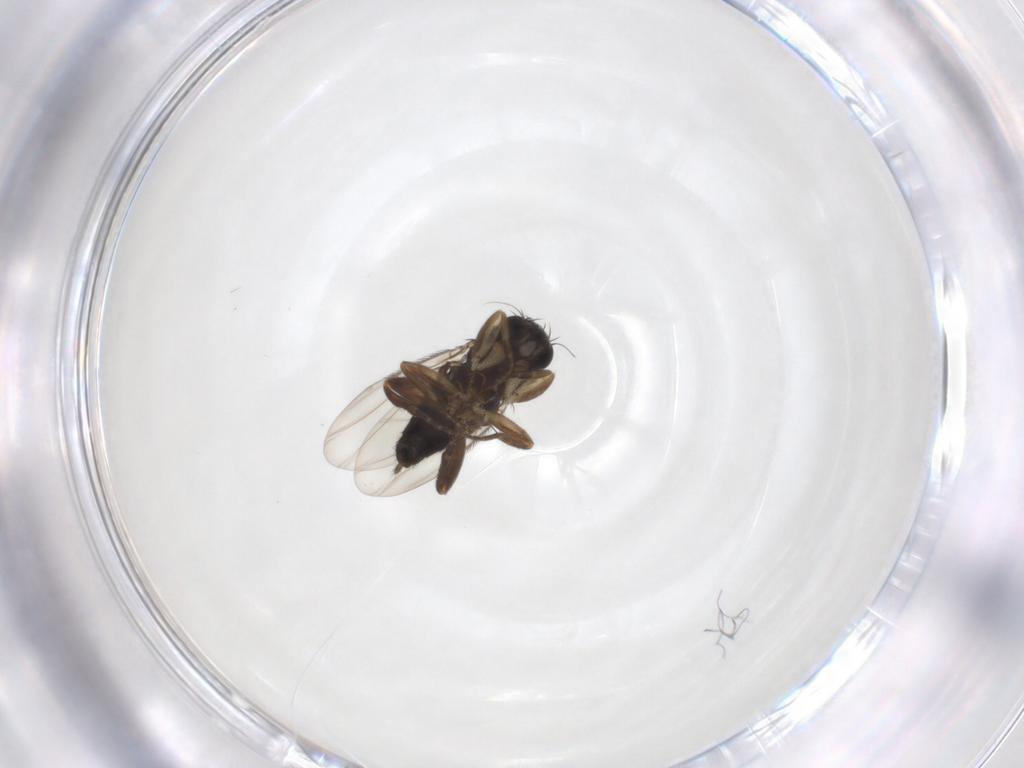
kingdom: Animalia
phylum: Arthropoda
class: Insecta
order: Diptera
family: Phoridae
